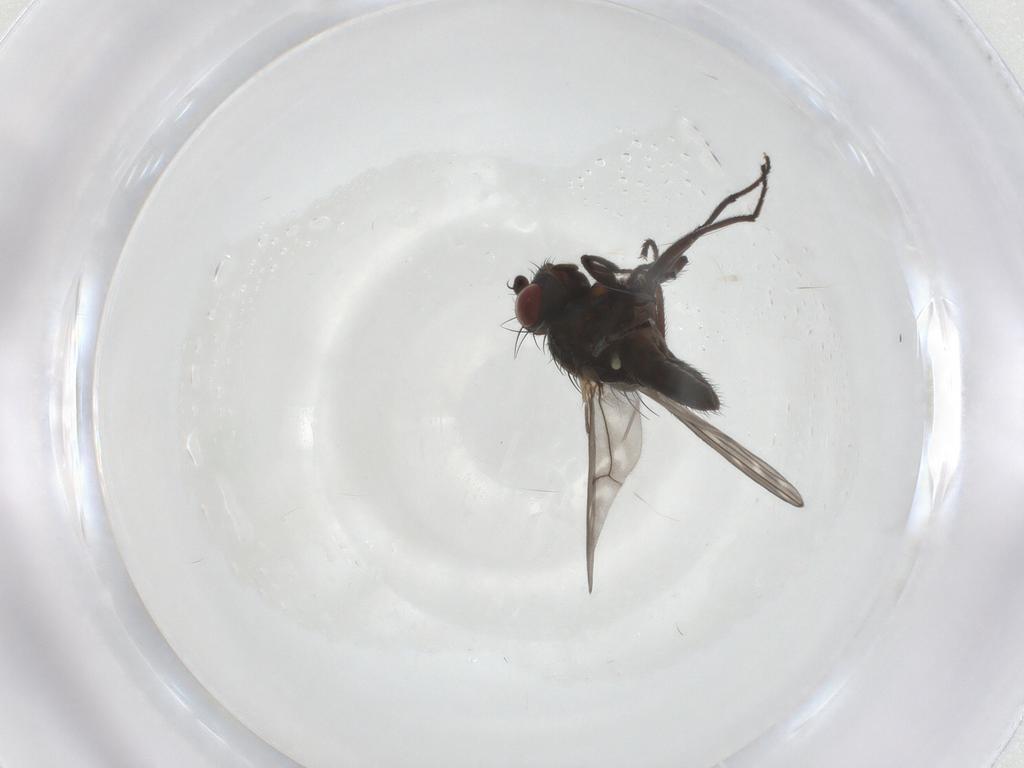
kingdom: Animalia
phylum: Arthropoda
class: Insecta
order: Diptera
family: Ephydridae
